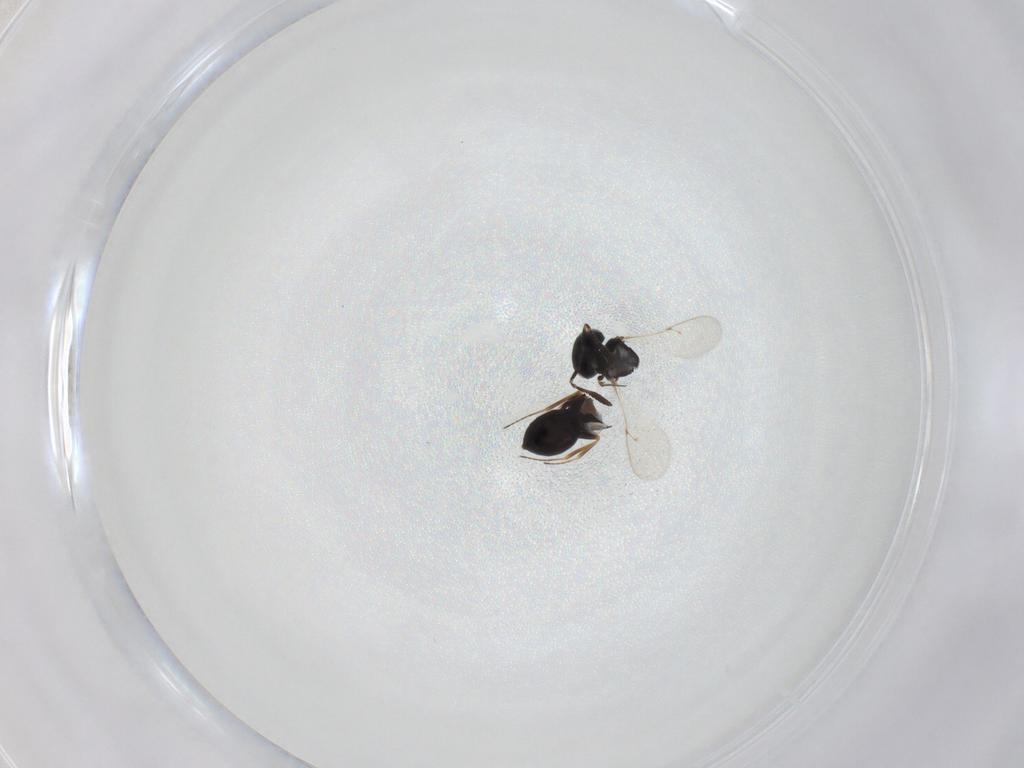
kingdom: Animalia
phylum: Arthropoda
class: Insecta
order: Hymenoptera
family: Scelionidae
